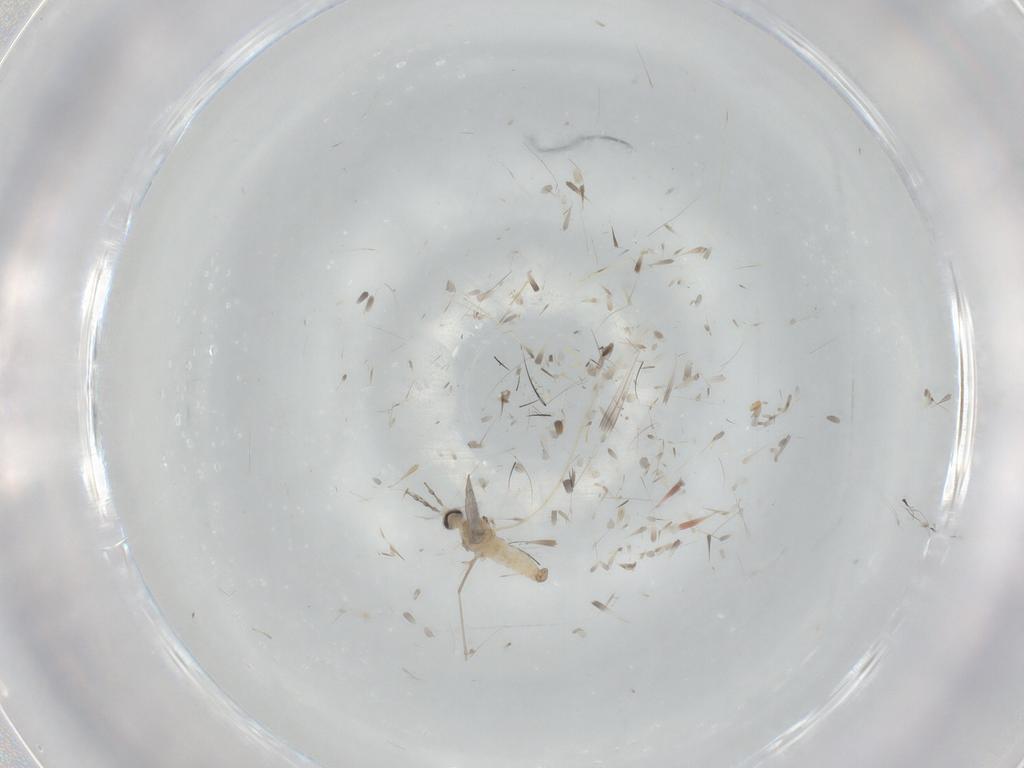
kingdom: Animalia
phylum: Arthropoda
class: Insecta
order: Diptera
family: Cecidomyiidae
